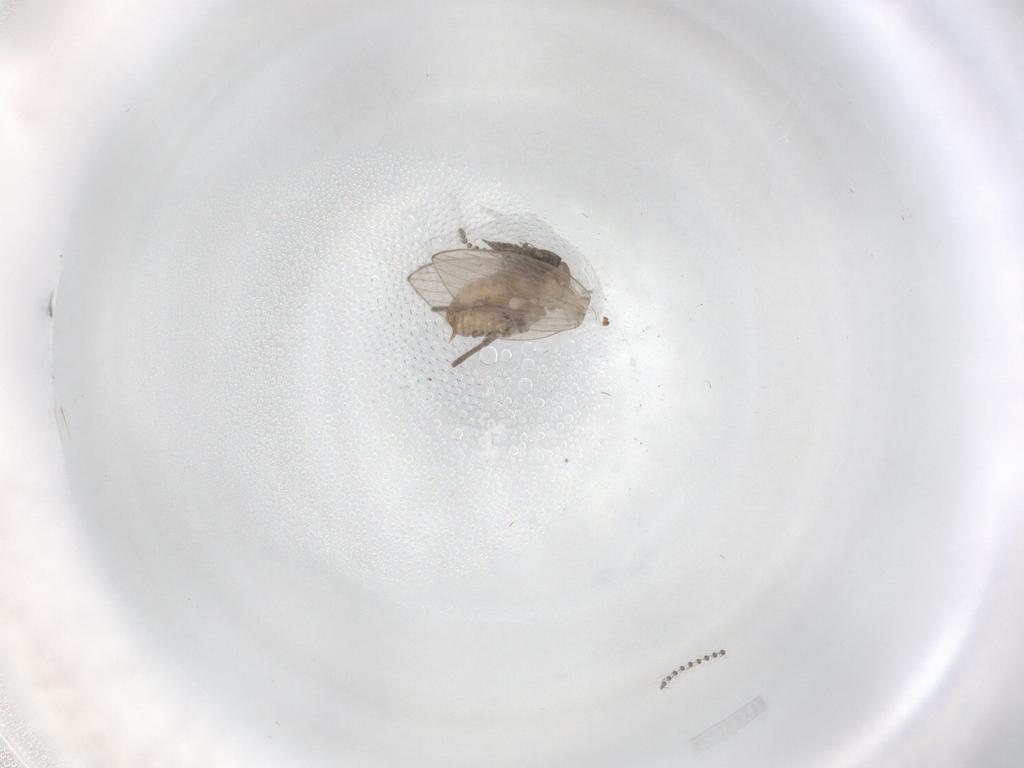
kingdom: Animalia
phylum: Arthropoda
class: Insecta
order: Diptera
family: Psychodidae
